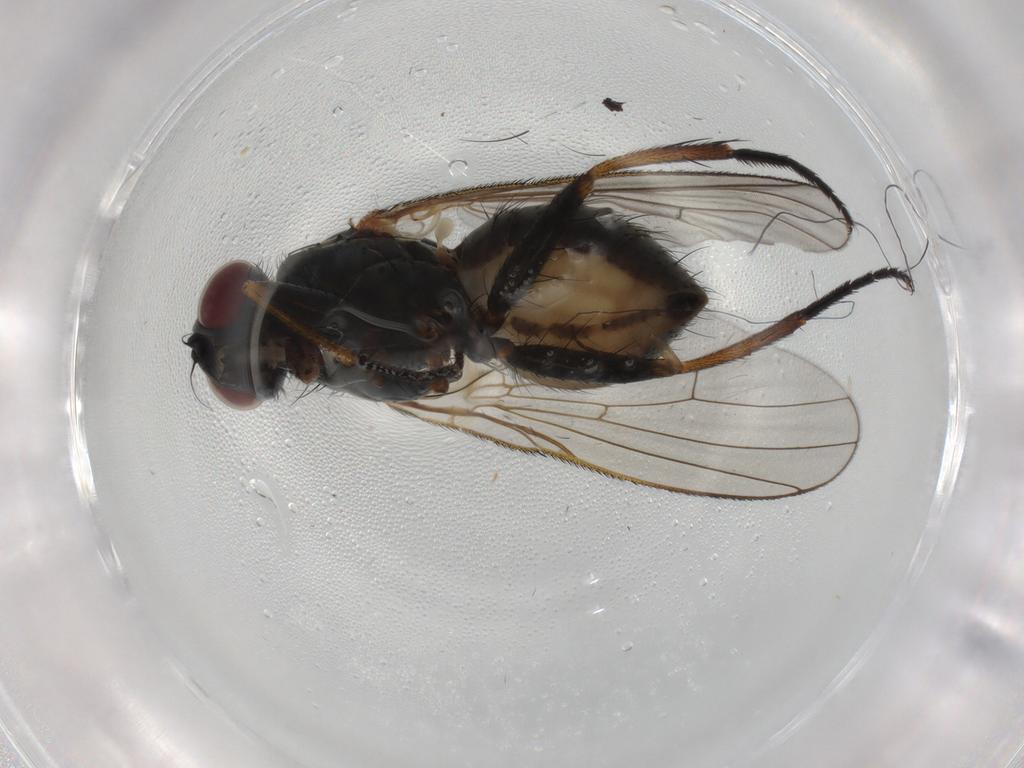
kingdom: Animalia
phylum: Arthropoda
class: Insecta
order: Diptera
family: Muscidae
